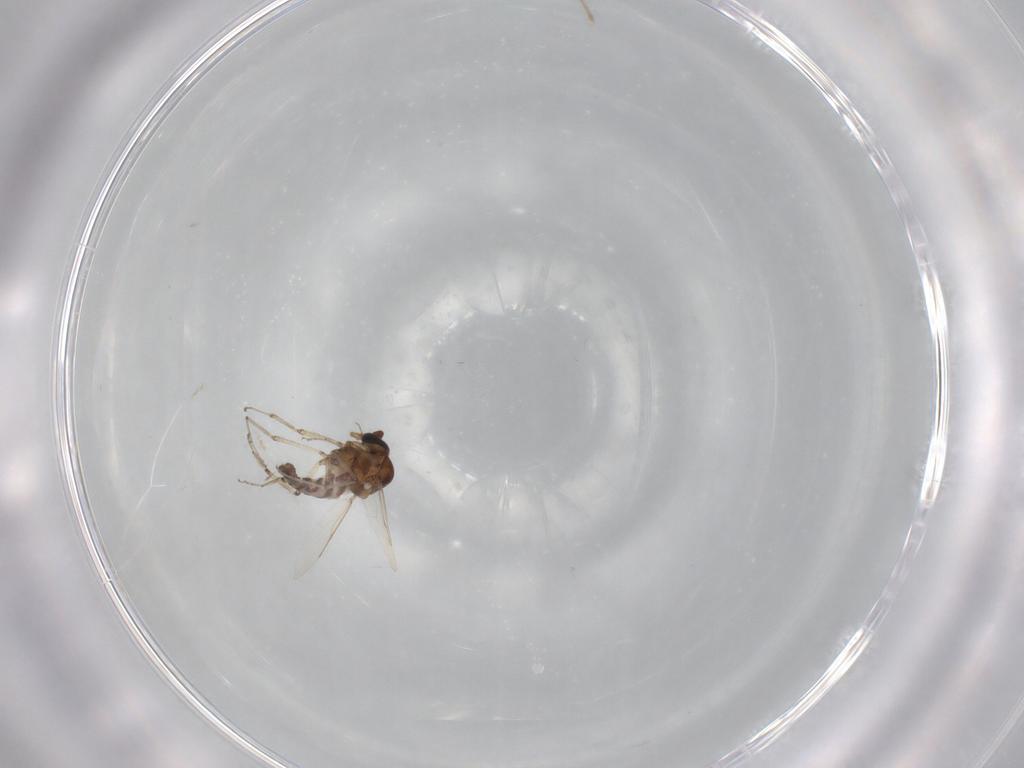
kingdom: Animalia
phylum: Arthropoda
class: Insecta
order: Diptera
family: Ceratopogonidae
